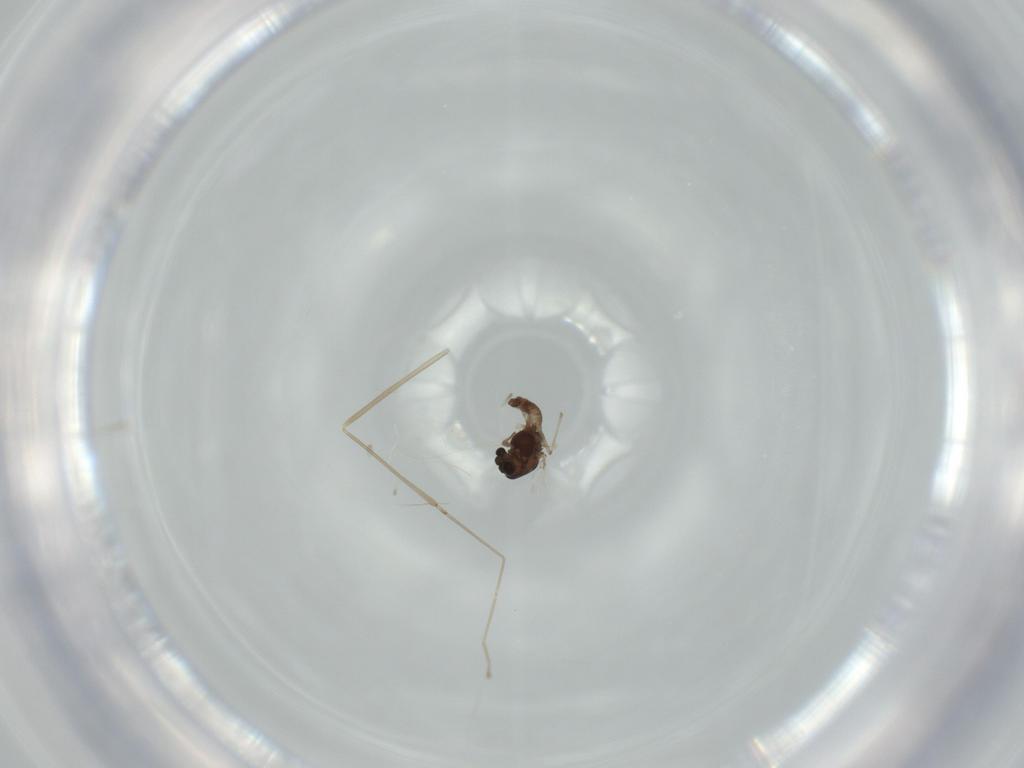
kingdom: Animalia
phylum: Arthropoda
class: Insecta
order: Diptera
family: Chironomidae
